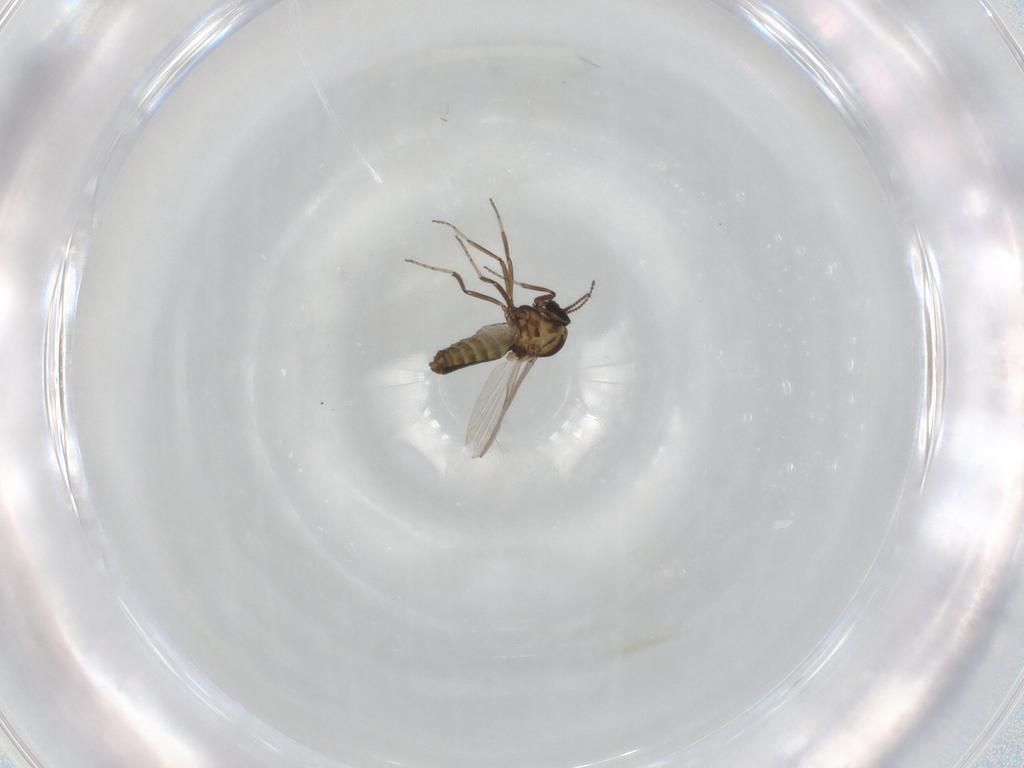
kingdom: Animalia
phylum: Arthropoda
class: Insecta
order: Diptera
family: Ceratopogonidae
